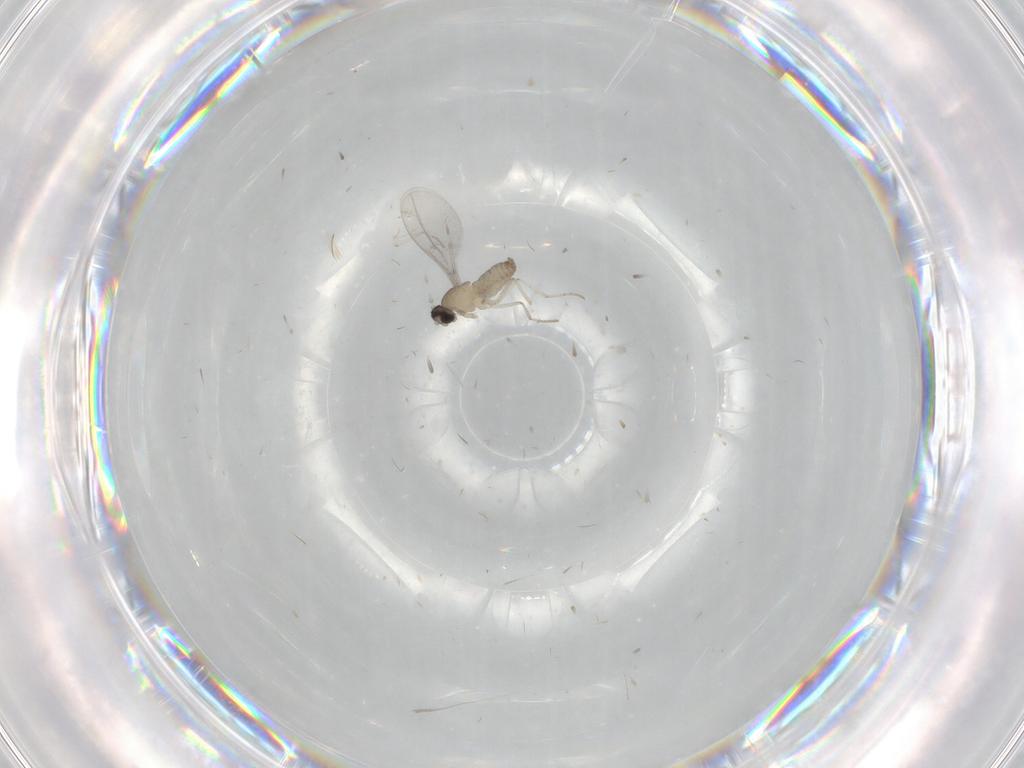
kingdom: Animalia
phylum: Arthropoda
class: Insecta
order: Diptera
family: Cecidomyiidae
